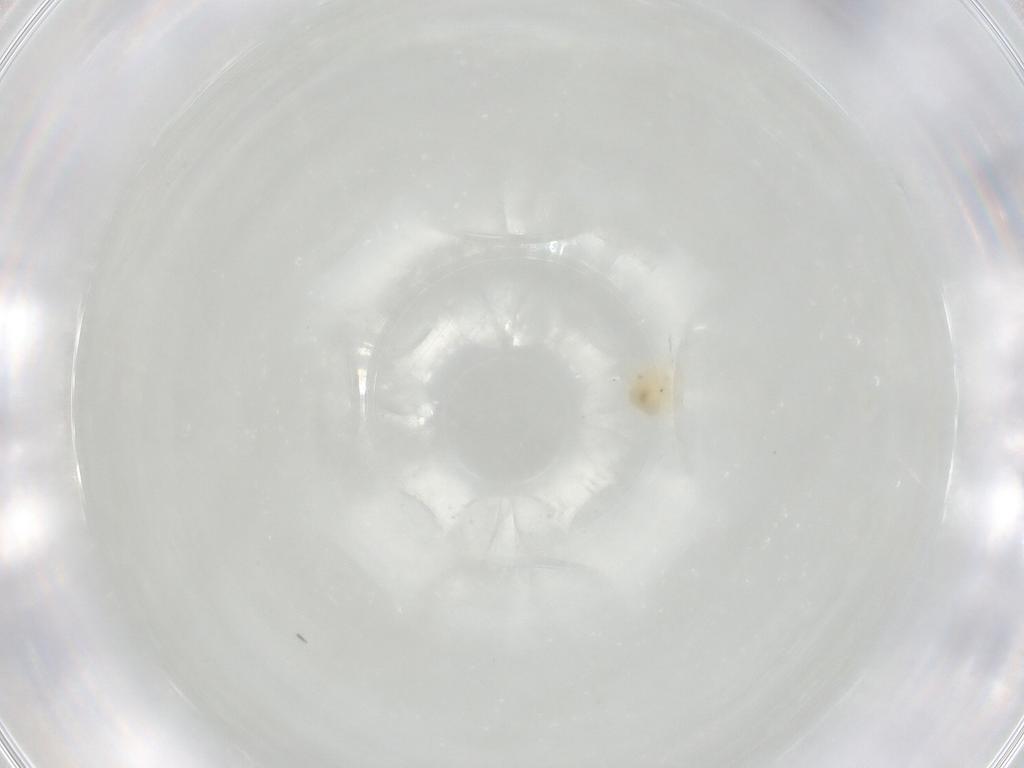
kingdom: Animalia
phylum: Arthropoda
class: Arachnida
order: Trombidiformes
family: Anystidae
